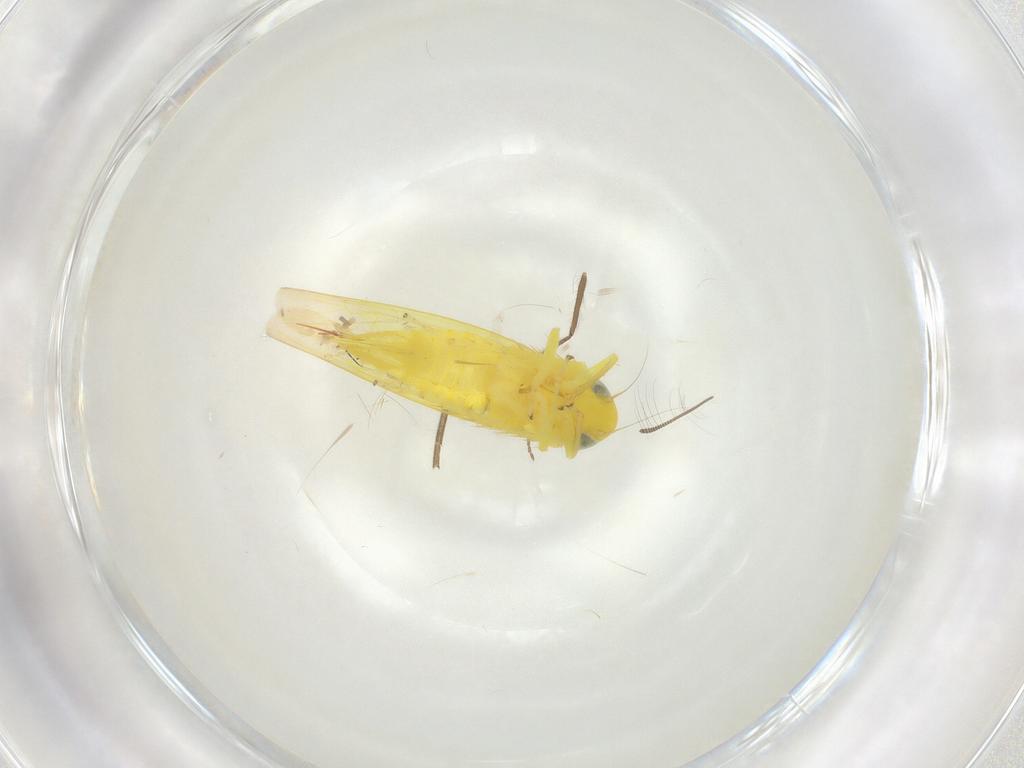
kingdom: Animalia
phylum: Arthropoda
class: Insecta
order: Hemiptera
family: Cicadellidae
